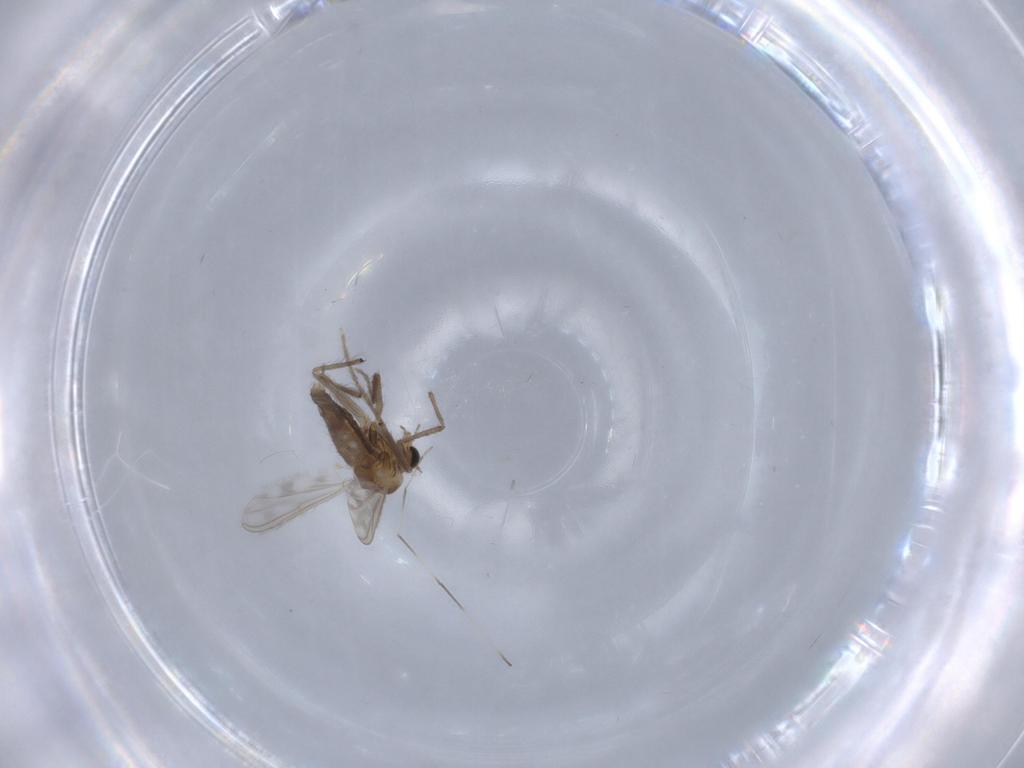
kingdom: Animalia
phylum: Arthropoda
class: Insecta
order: Diptera
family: Chironomidae
